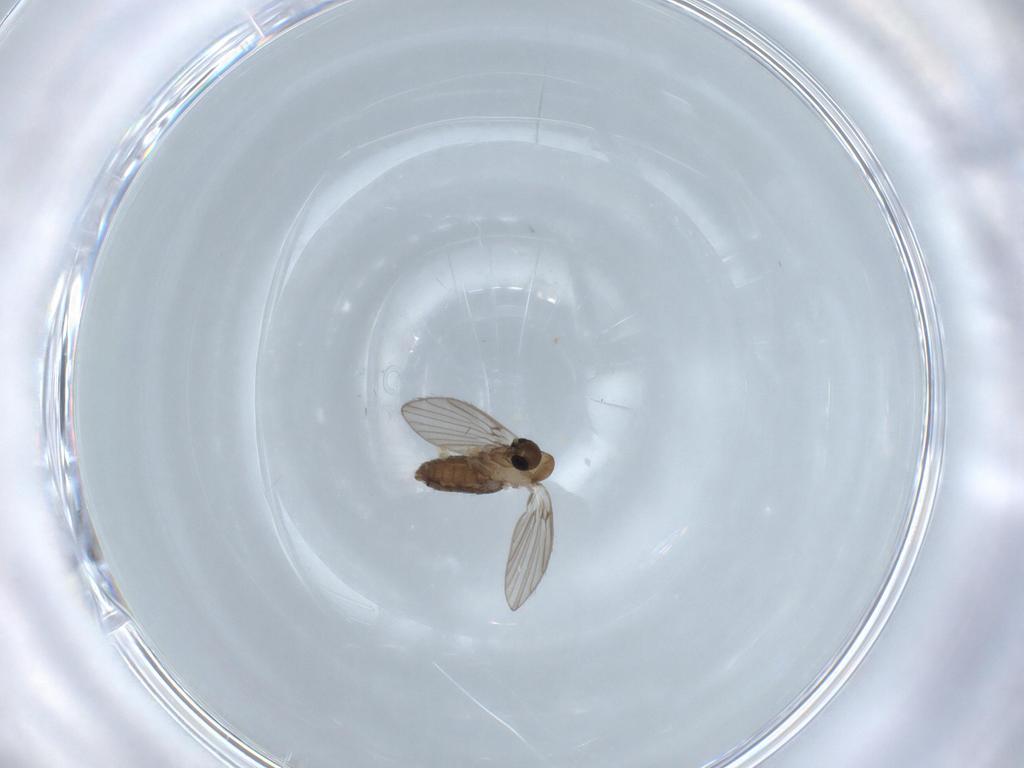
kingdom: Animalia
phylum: Arthropoda
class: Insecta
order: Diptera
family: Psychodidae
